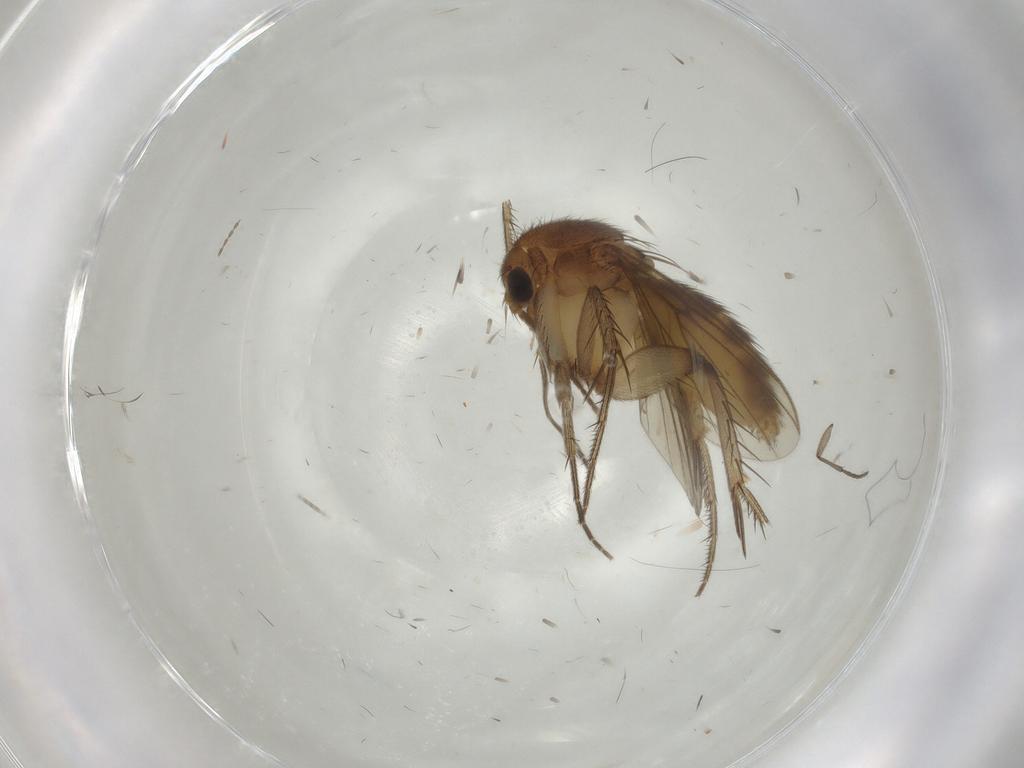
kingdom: Animalia
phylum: Arthropoda
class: Insecta
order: Diptera
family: Sciaridae
